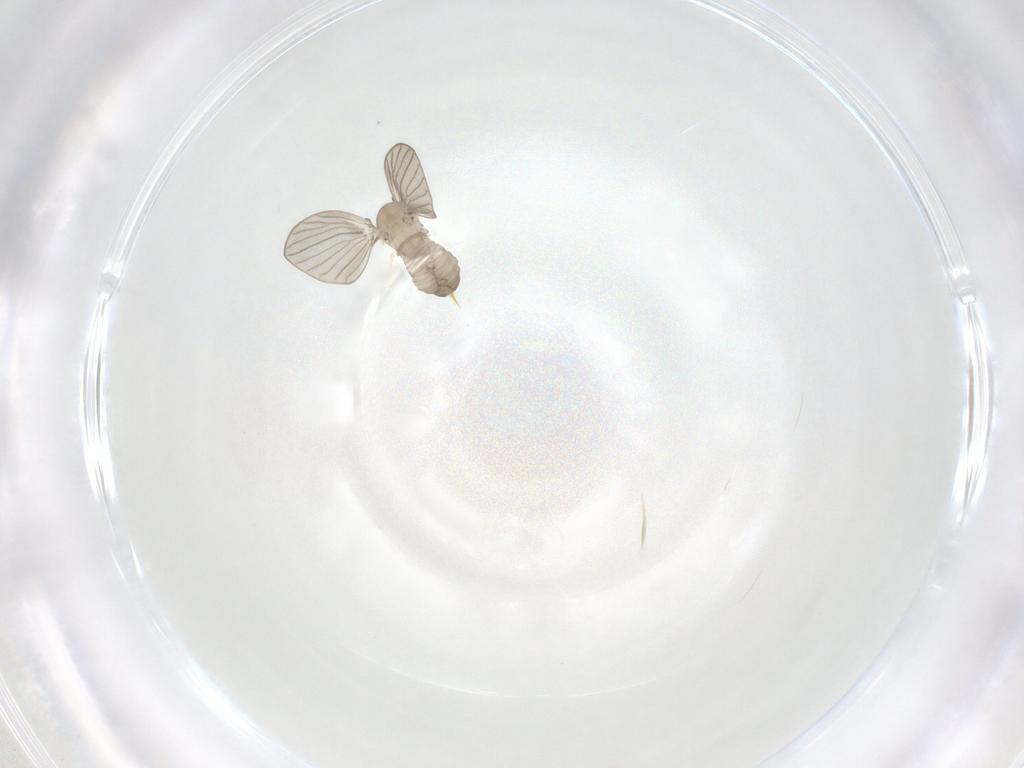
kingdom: Animalia
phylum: Arthropoda
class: Insecta
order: Diptera
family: Psychodidae
